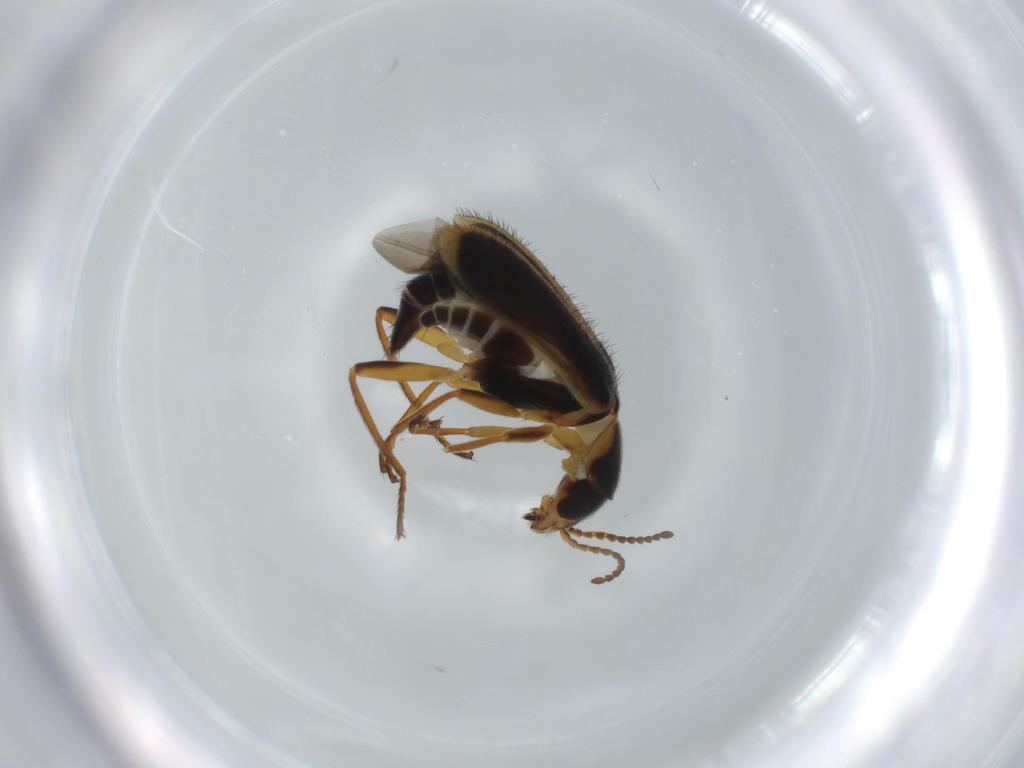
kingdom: Animalia
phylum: Arthropoda
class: Insecta
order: Coleoptera
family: Melyridae
